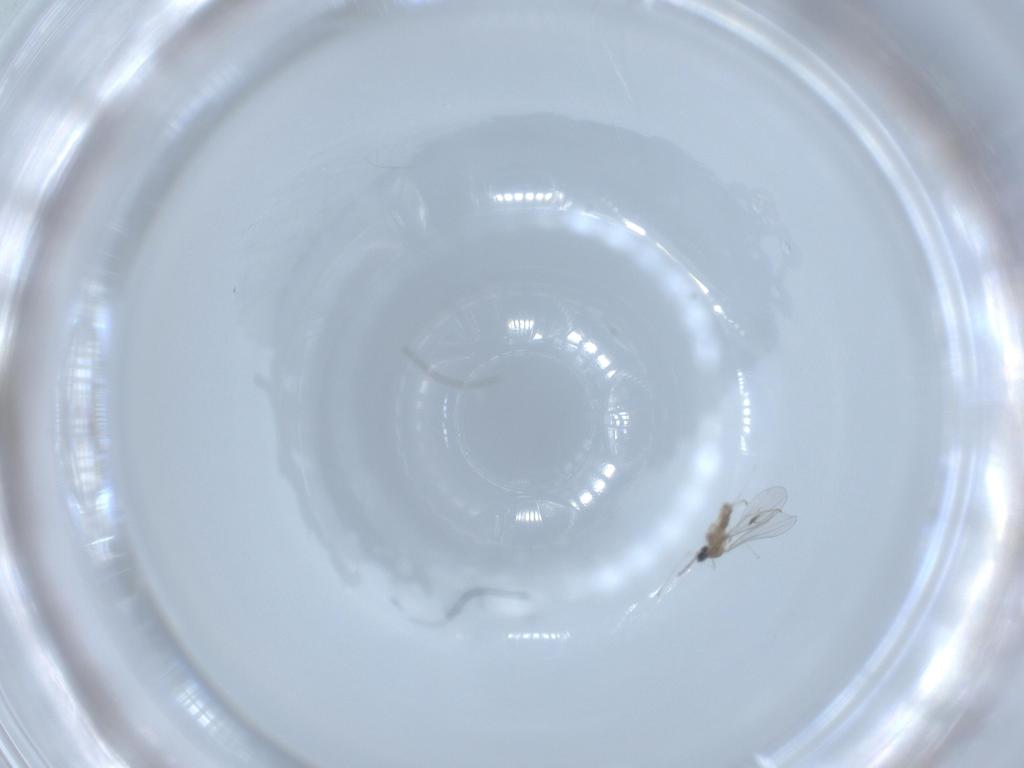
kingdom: Animalia
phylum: Arthropoda
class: Insecta
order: Diptera
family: Cecidomyiidae
